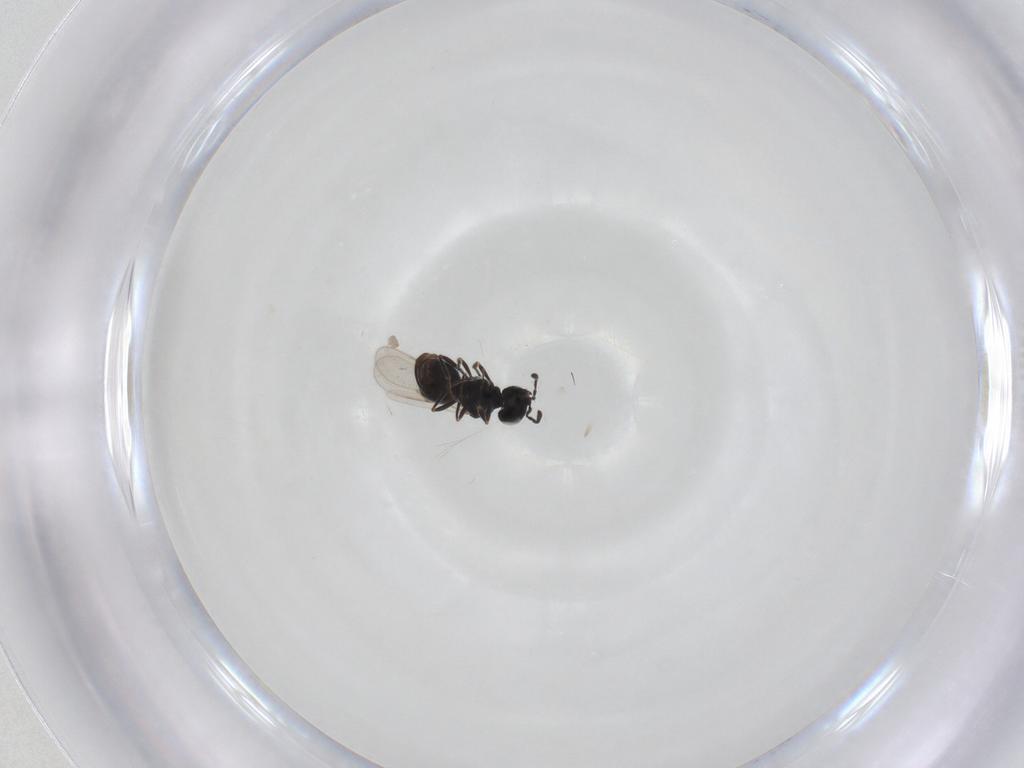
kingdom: Animalia
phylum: Arthropoda
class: Insecta
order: Hymenoptera
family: Scelionidae
